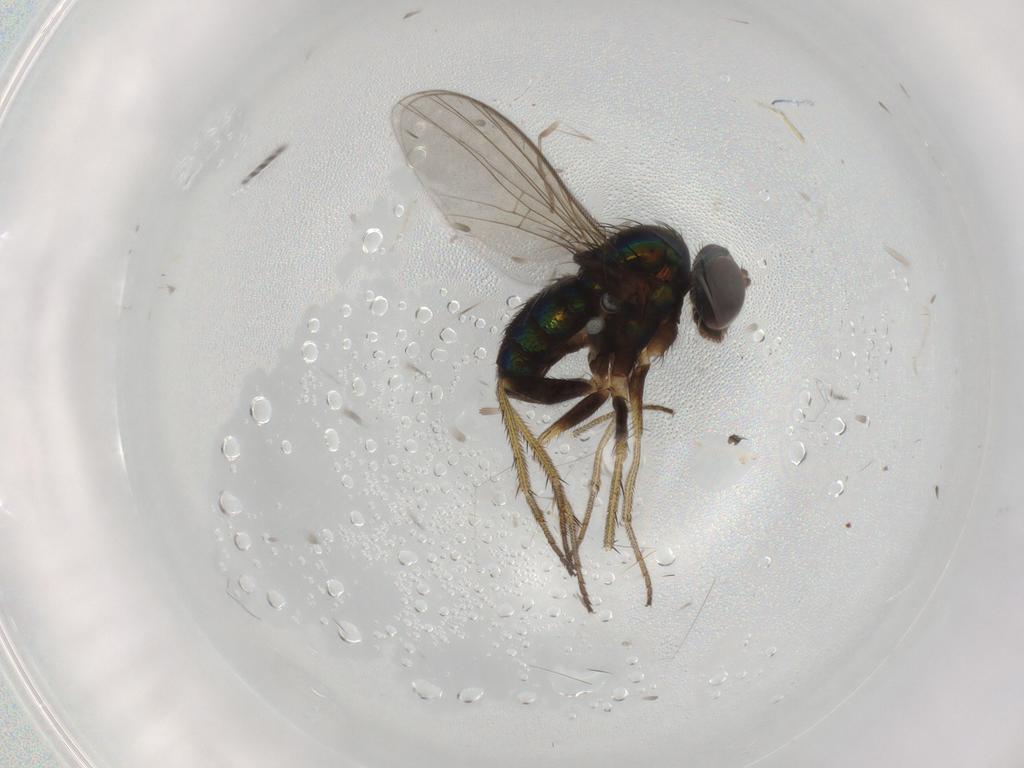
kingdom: Animalia
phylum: Arthropoda
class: Insecta
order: Diptera
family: Psychodidae
